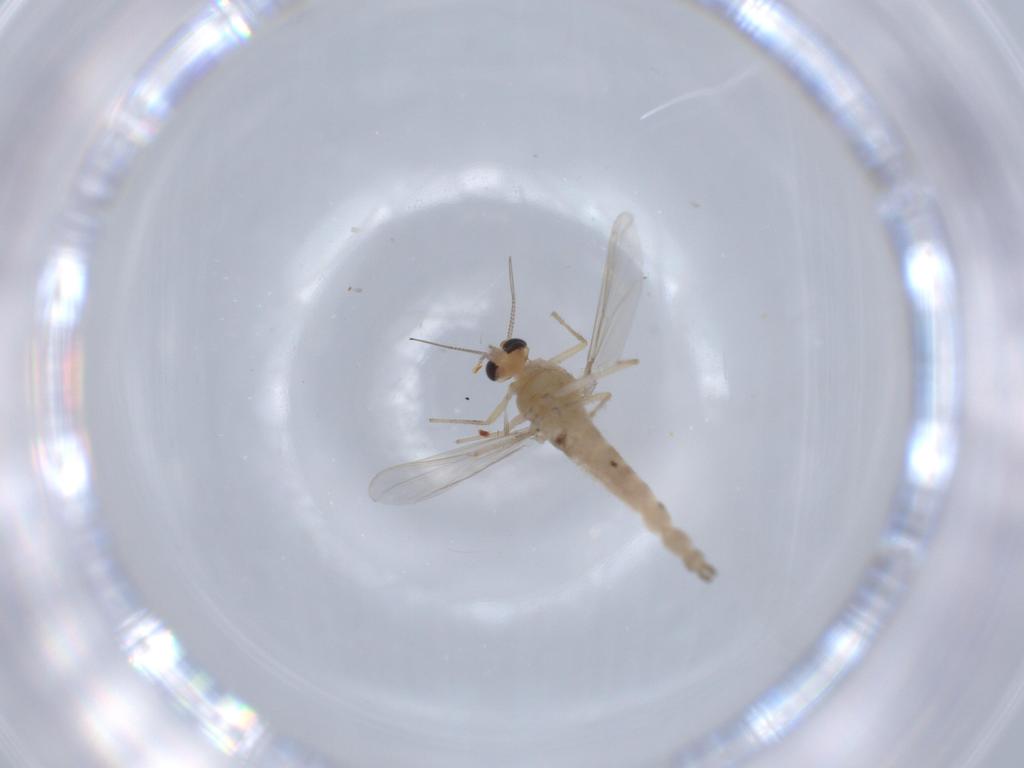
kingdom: Animalia
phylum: Arthropoda
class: Insecta
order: Diptera
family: Chironomidae
